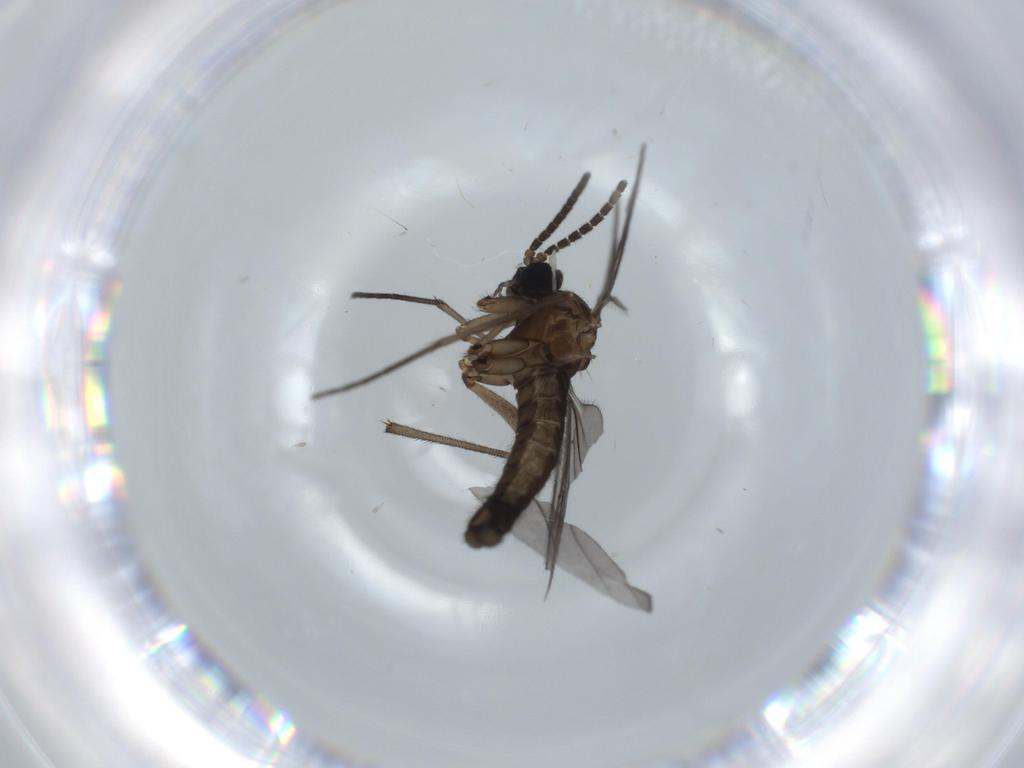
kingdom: Animalia
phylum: Arthropoda
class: Insecta
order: Diptera
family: Sciaridae
